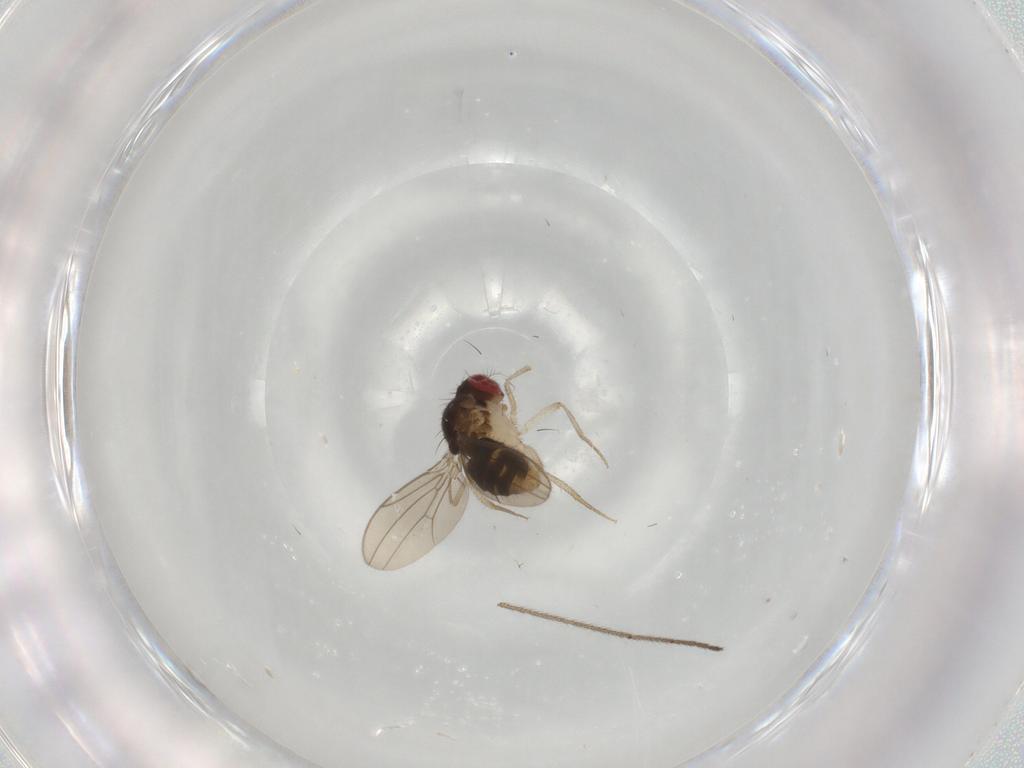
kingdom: Animalia
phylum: Arthropoda
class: Insecta
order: Diptera
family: Drosophilidae
